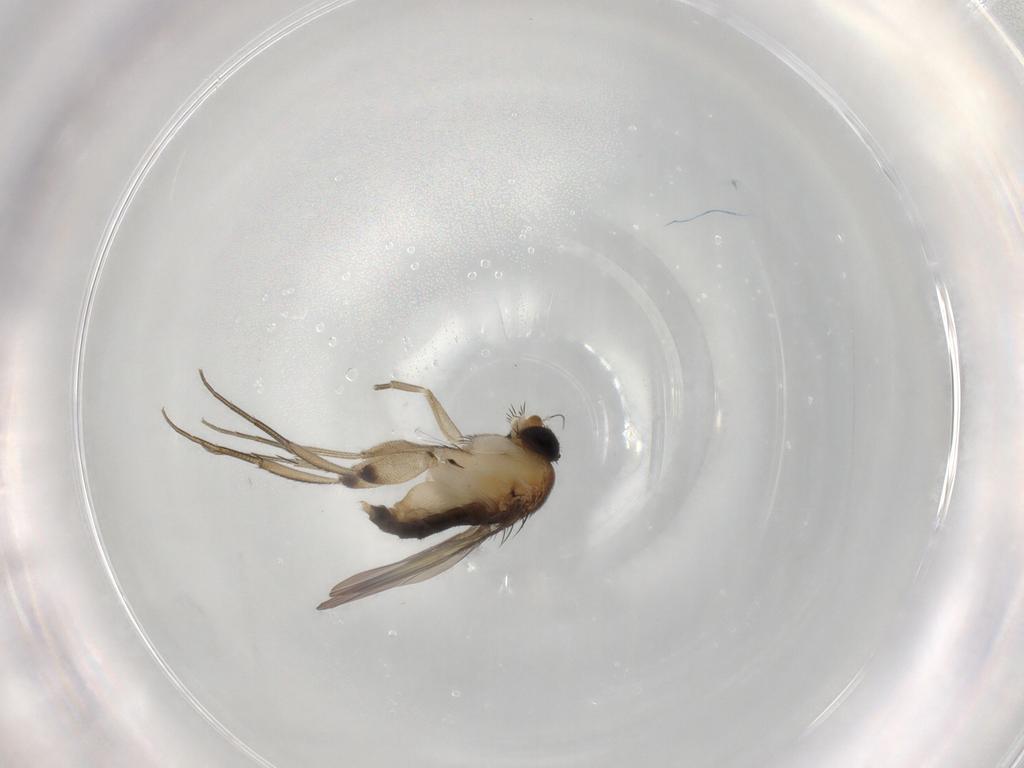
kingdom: Animalia
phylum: Arthropoda
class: Insecta
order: Diptera
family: Phoridae
